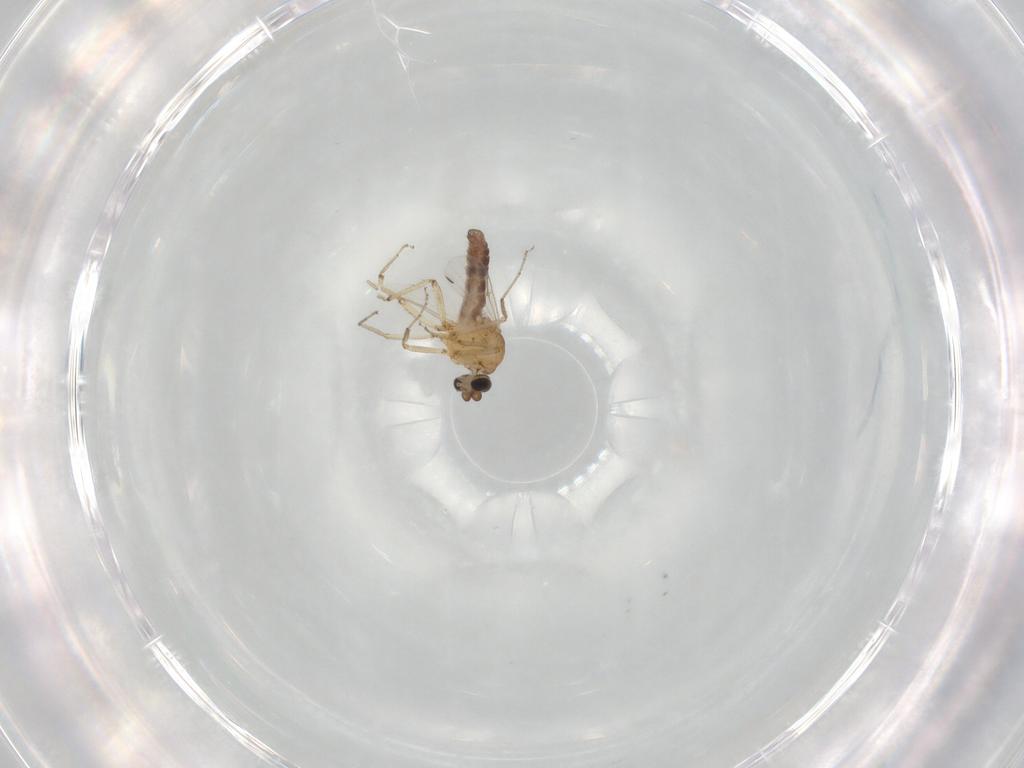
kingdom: Animalia
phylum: Arthropoda
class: Insecta
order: Diptera
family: Ceratopogonidae
